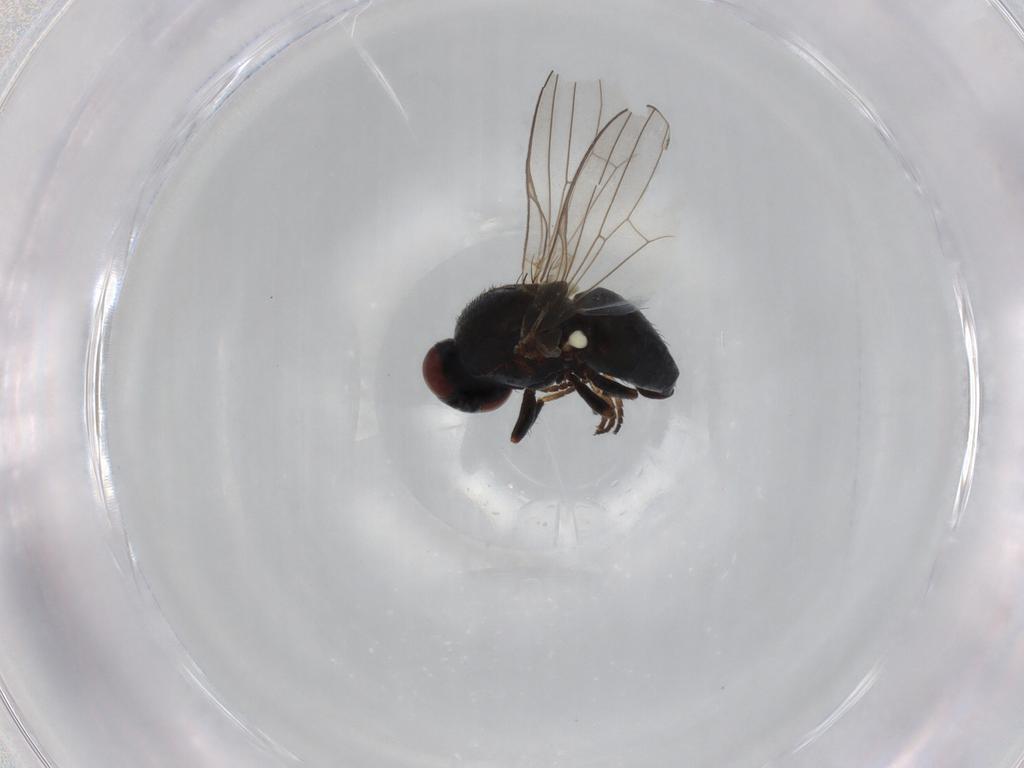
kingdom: Animalia
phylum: Arthropoda
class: Insecta
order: Diptera
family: Chamaemyiidae
